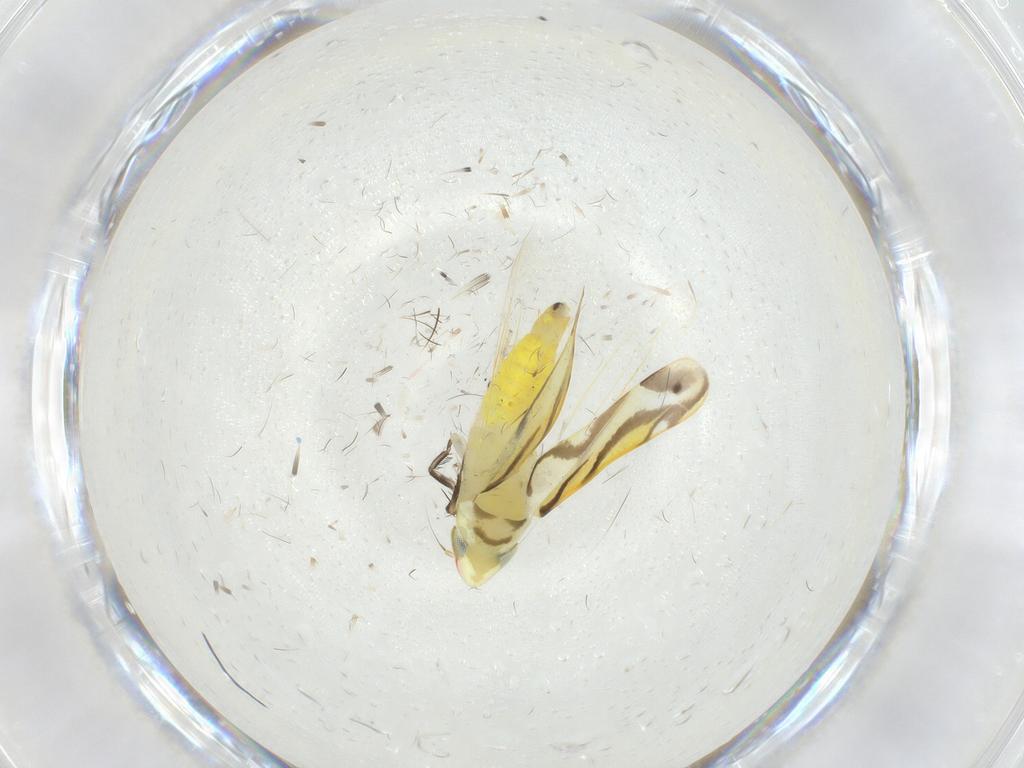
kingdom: Animalia
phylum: Arthropoda
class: Insecta
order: Hemiptera
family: Cicadellidae
